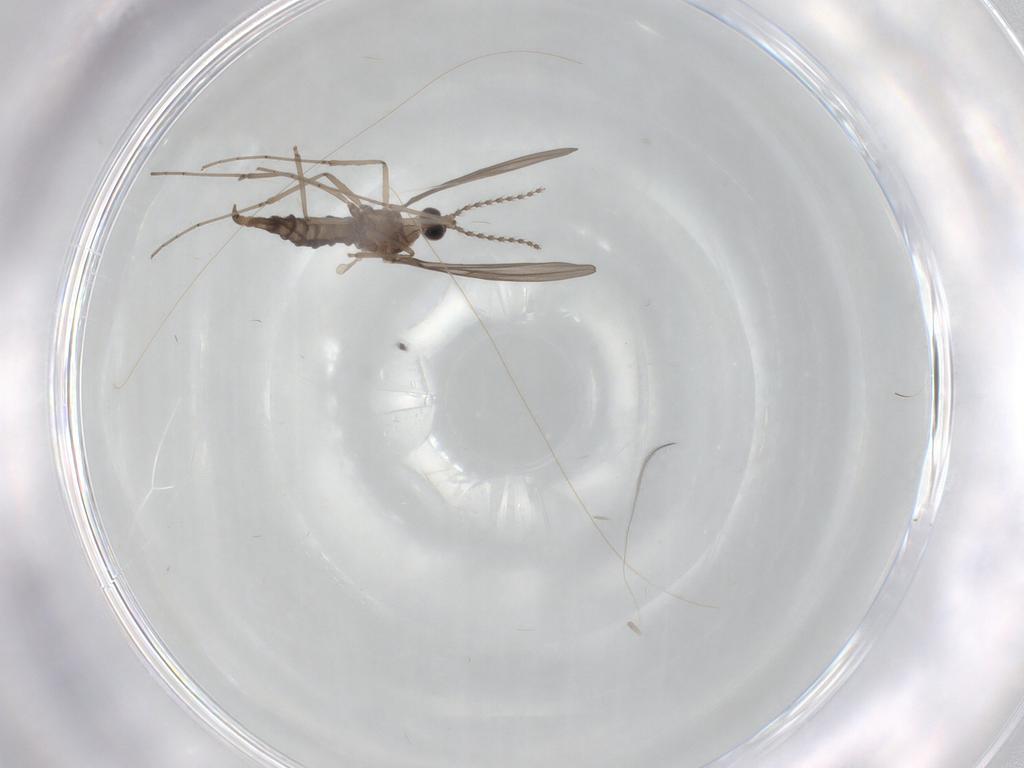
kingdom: Animalia
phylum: Arthropoda
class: Insecta
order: Diptera
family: Cecidomyiidae
